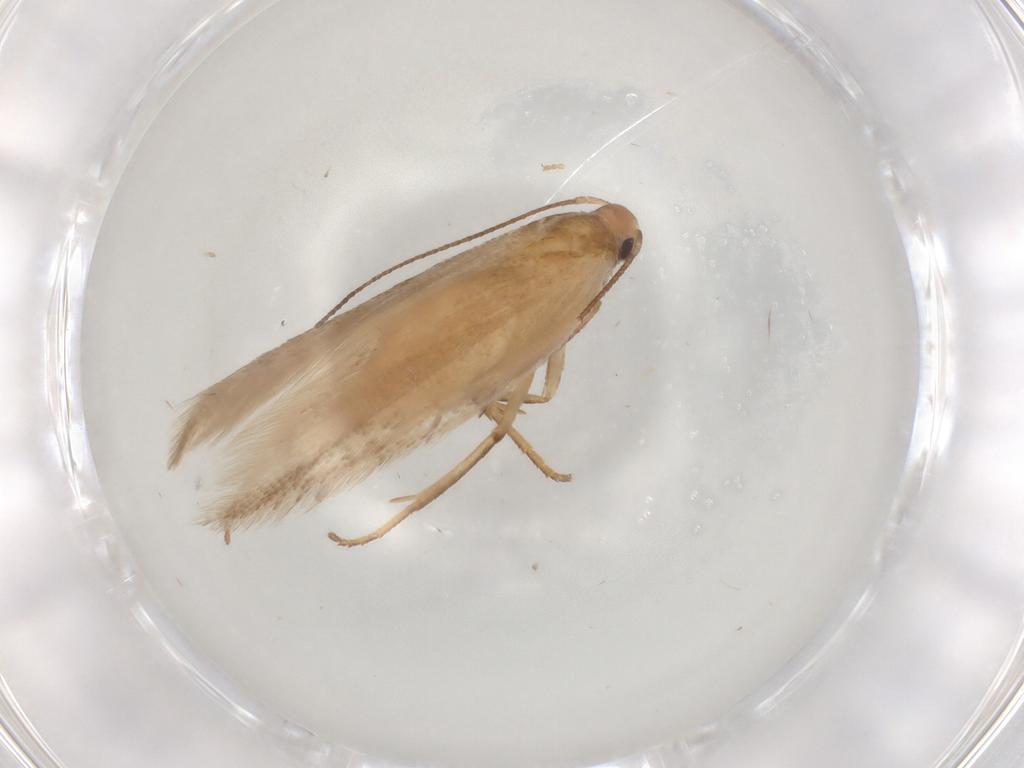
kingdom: Animalia
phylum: Arthropoda
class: Insecta
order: Lepidoptera
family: Gelechiidae
